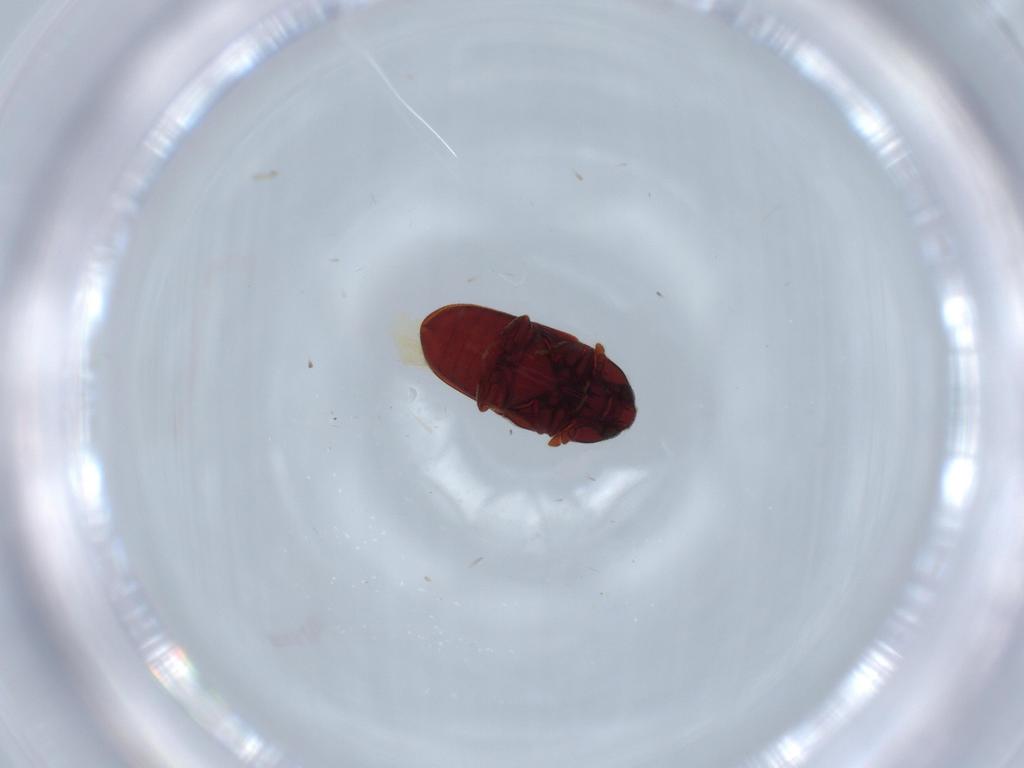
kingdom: Animalia
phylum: Arthropoda
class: Insecta
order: Coleoptera
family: Throscidae
